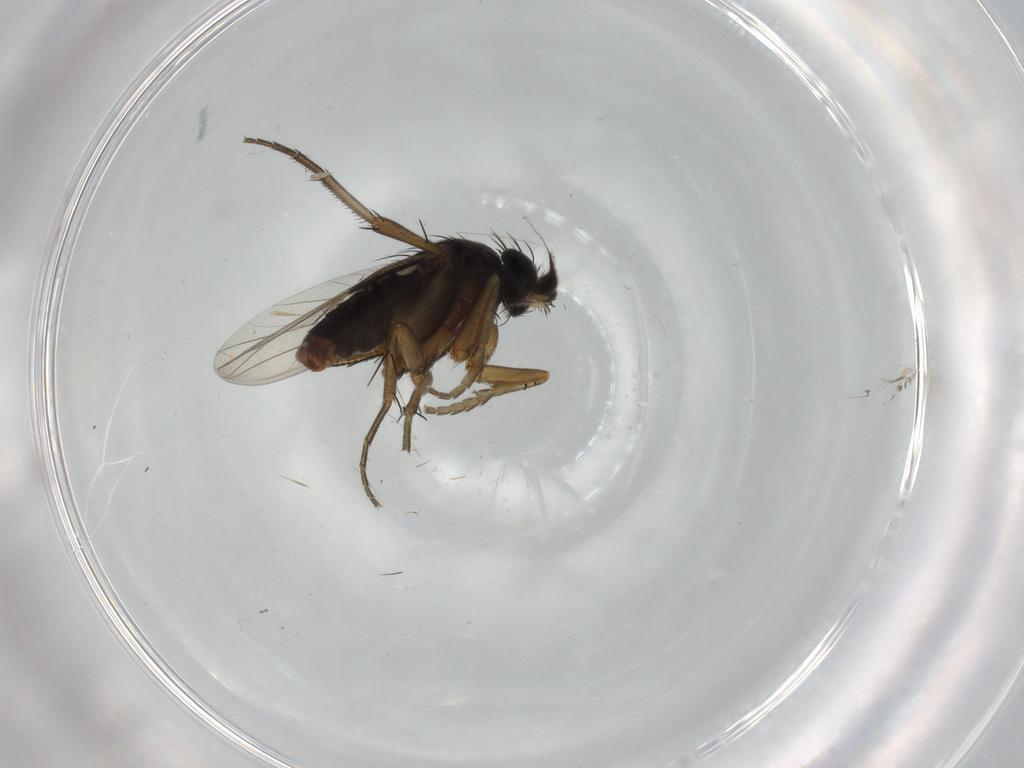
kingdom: Animalia
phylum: Arthropoda
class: Insecta
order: Diptera
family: Phoridae
